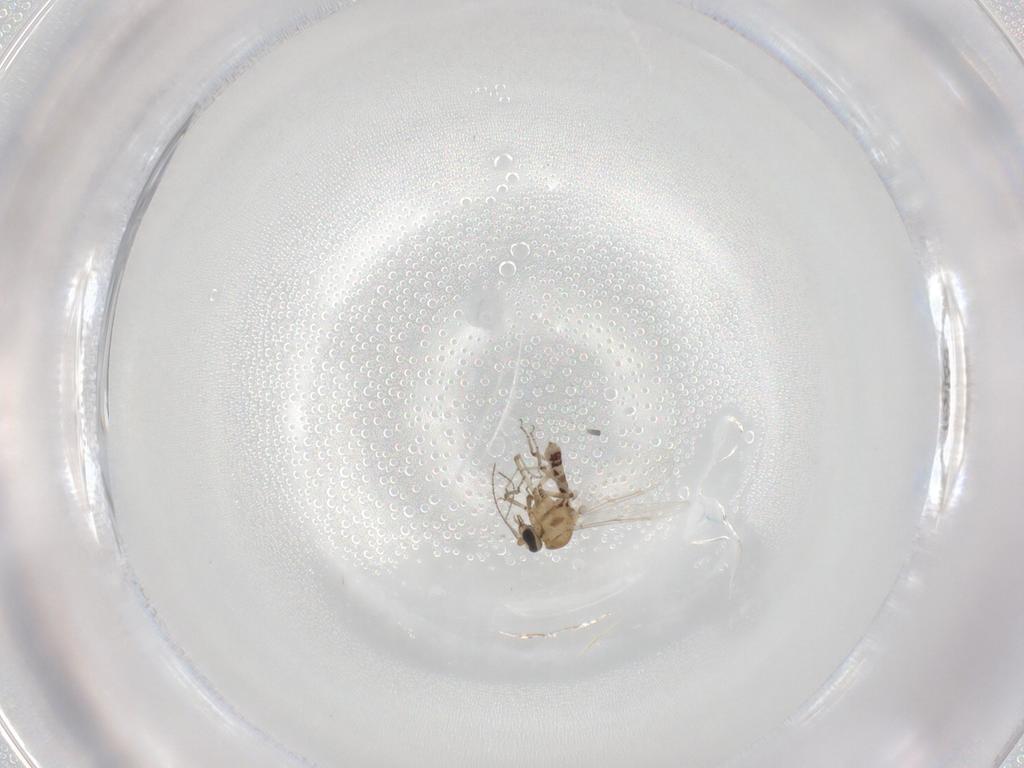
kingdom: Animalia
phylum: Arthropoda
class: Insecta
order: Diptera
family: Ceratopogonidae
